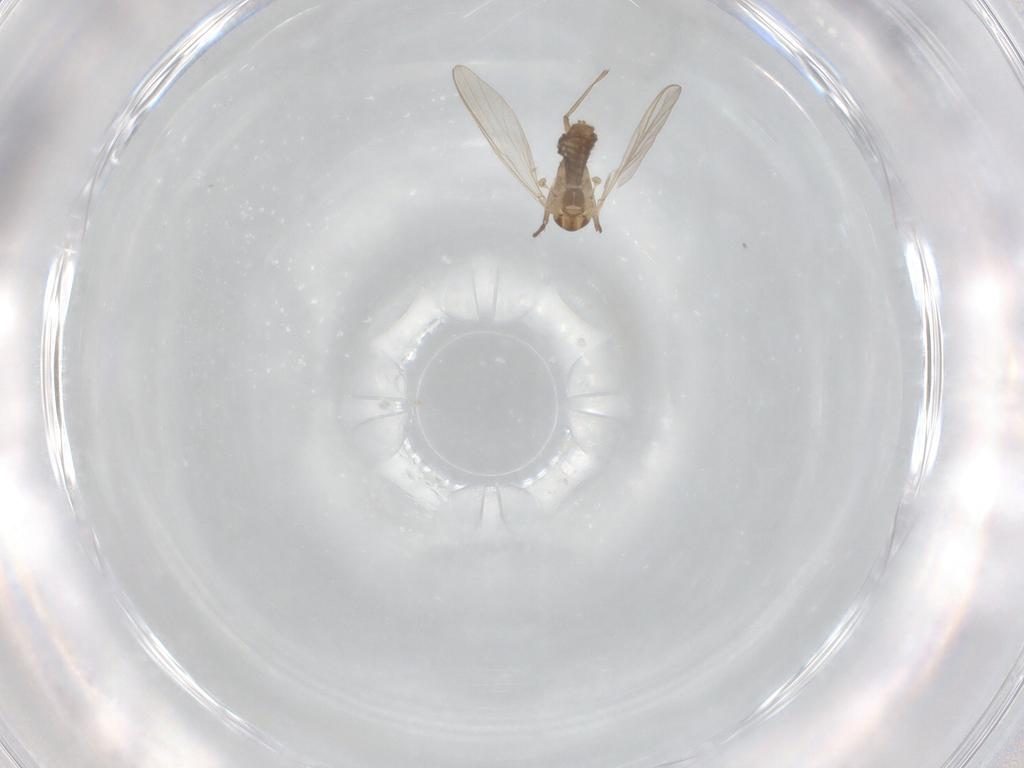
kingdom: Animalia
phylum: Arthropoda
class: Insecta
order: Diptera
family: Chironomidae
